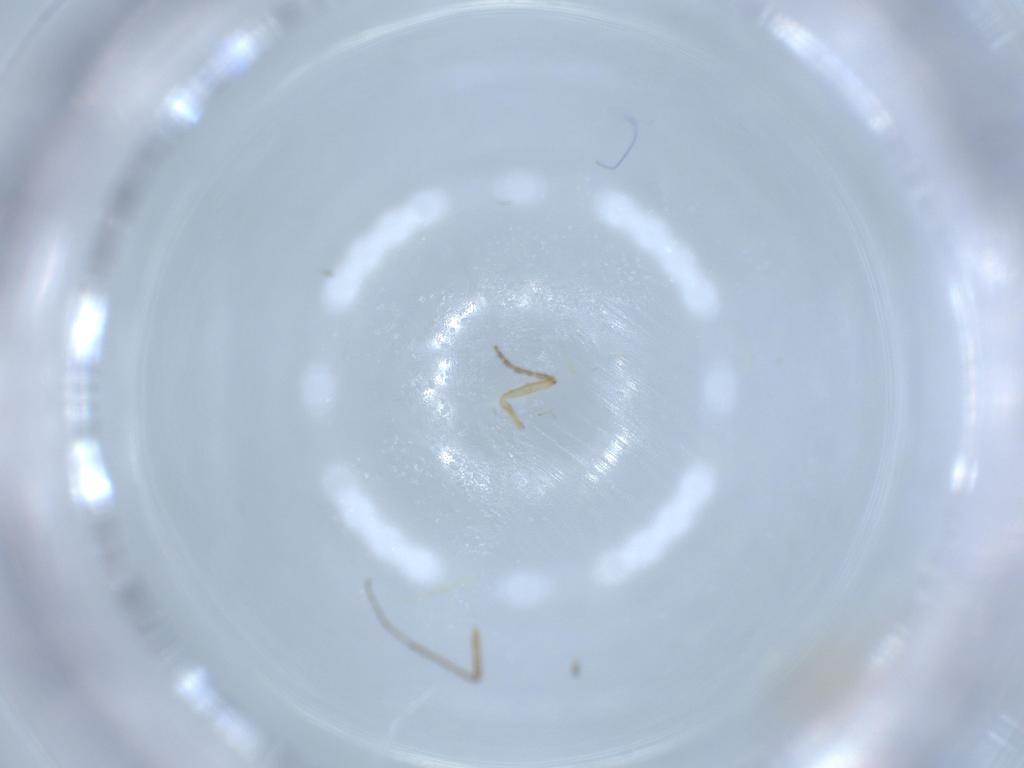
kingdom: Animalia
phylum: Arthropoda
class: Insecta
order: Diptera
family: Ceratopogonidae
